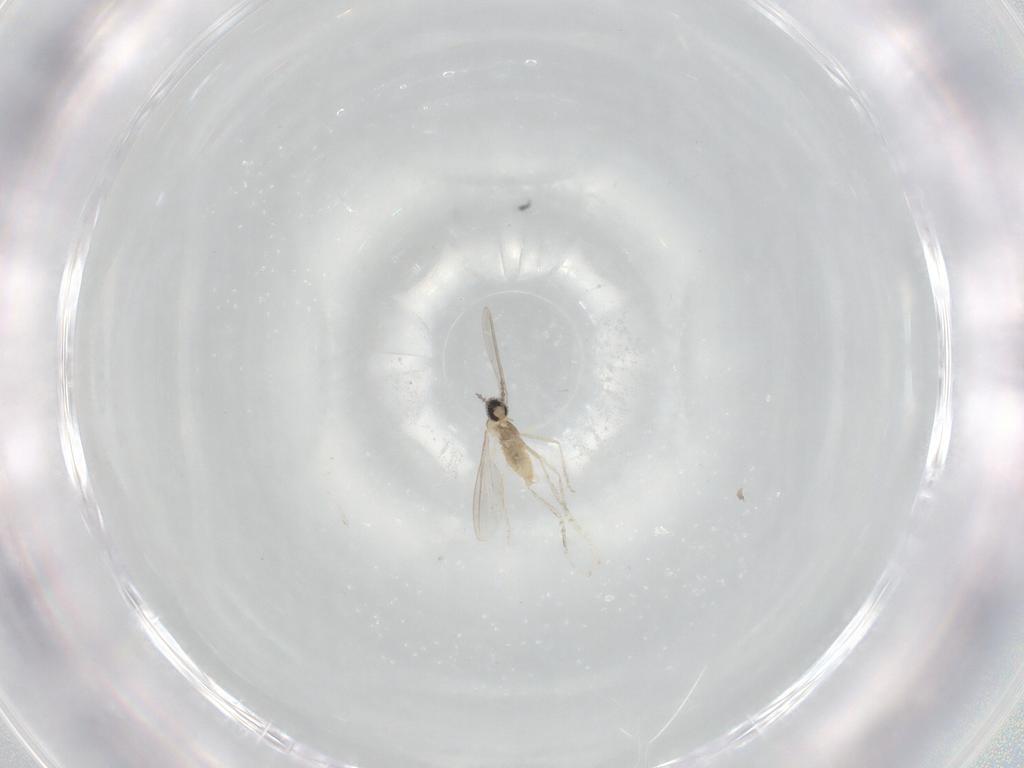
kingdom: Animalia
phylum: Arthropoda
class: Insecta
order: Diptera
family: Cecidomyiidae
